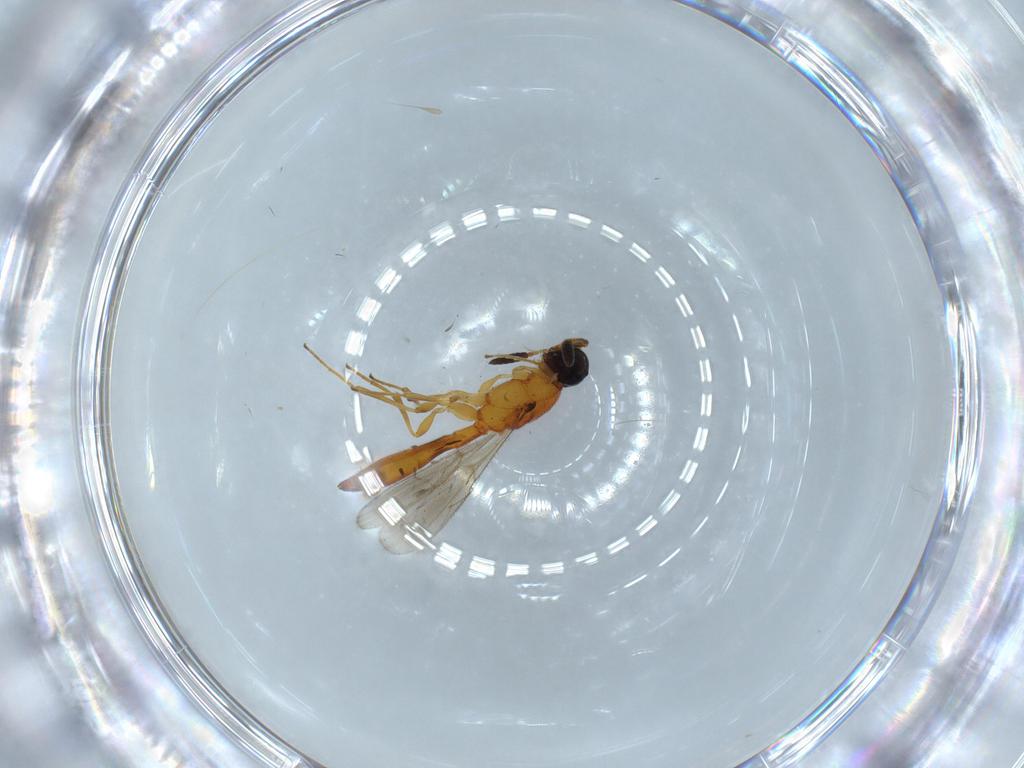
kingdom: Animalia
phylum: Arthropoda
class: Insecta
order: Hymenoptera
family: Scelionidae
